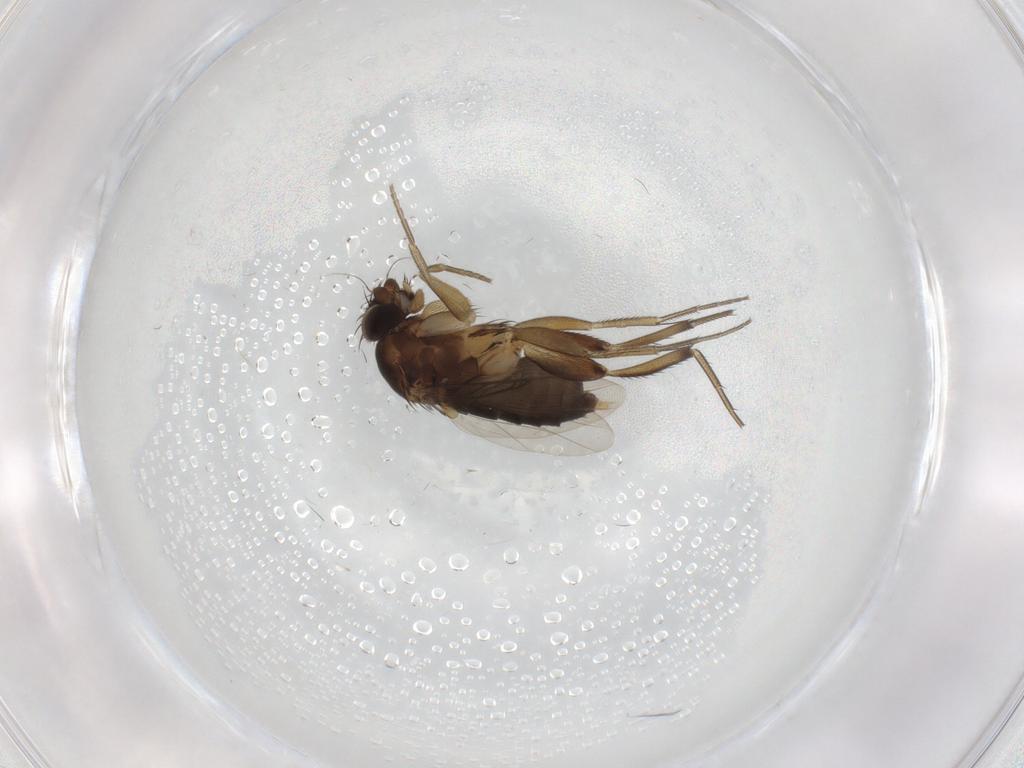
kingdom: Animalia
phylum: Arthropoda
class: Insecta
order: Diptera
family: Phoridae
